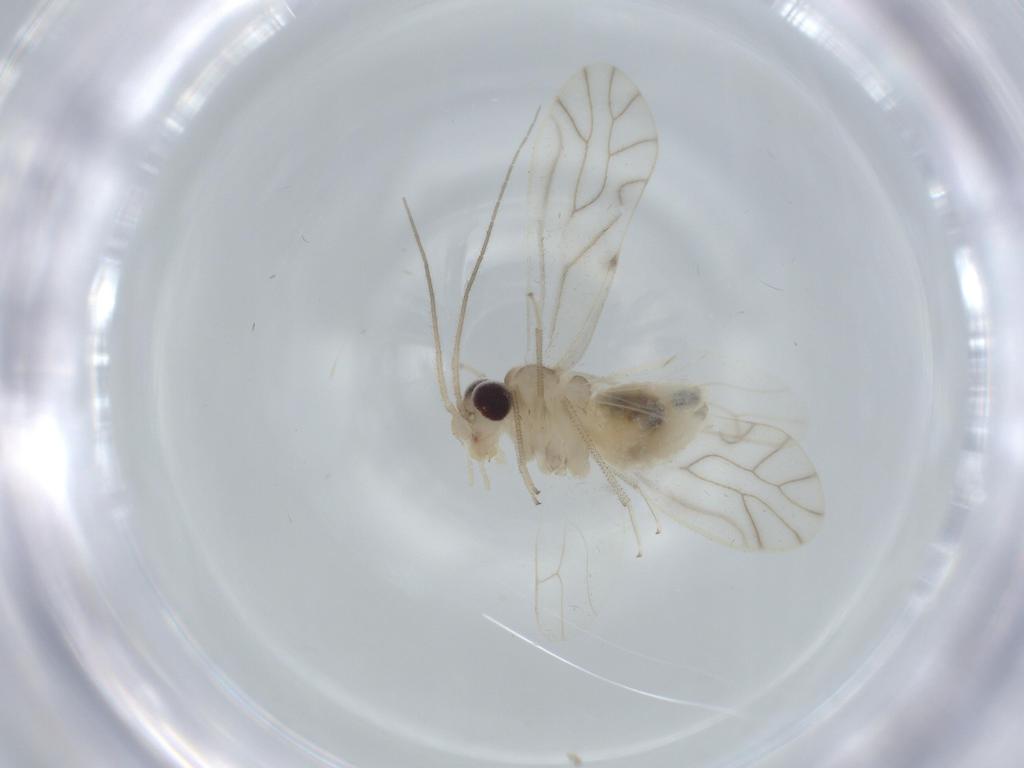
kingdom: Animalia
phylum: Arthropoda
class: Insecta
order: Psocodea
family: Caeciliusidae
